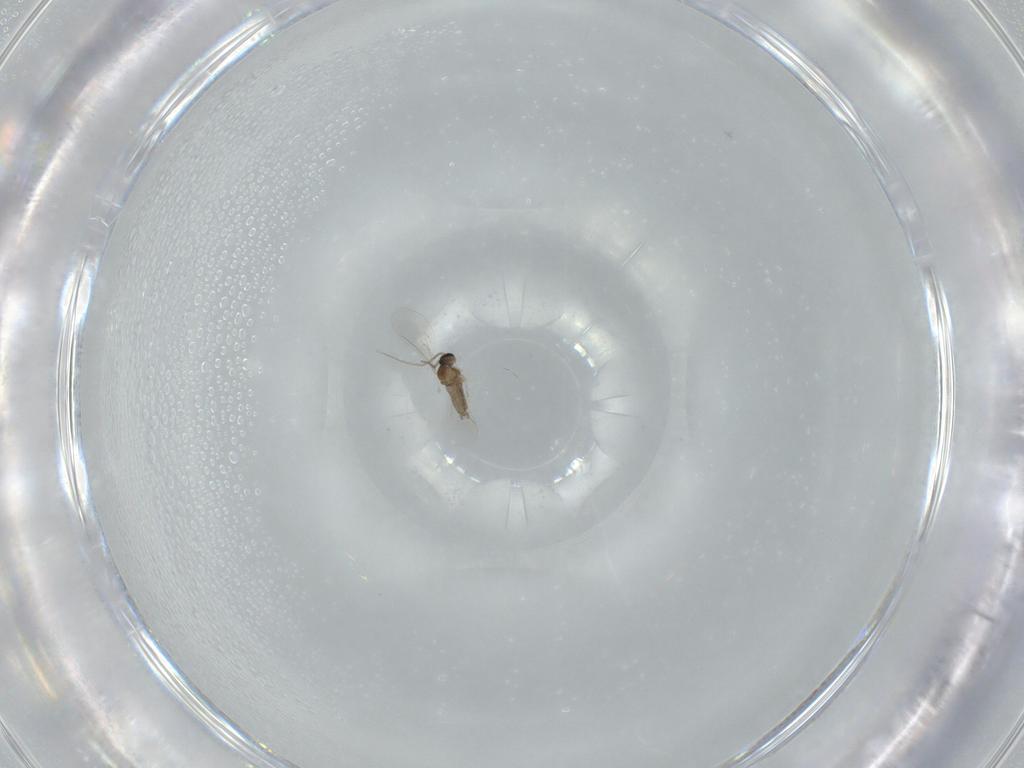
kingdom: Animalia
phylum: Arthropoda
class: Insecta
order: Diptera
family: Cecidomyiidae
